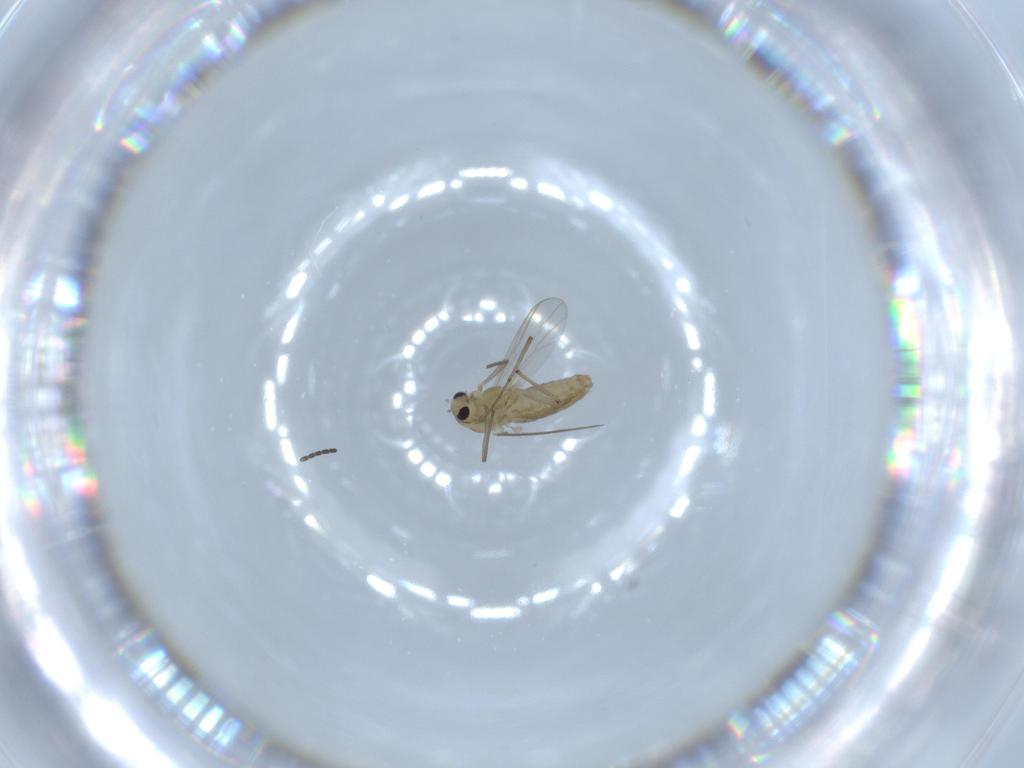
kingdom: Animalia
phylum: Arthropoda
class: Insecta
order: Diptera
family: Chironomidae
